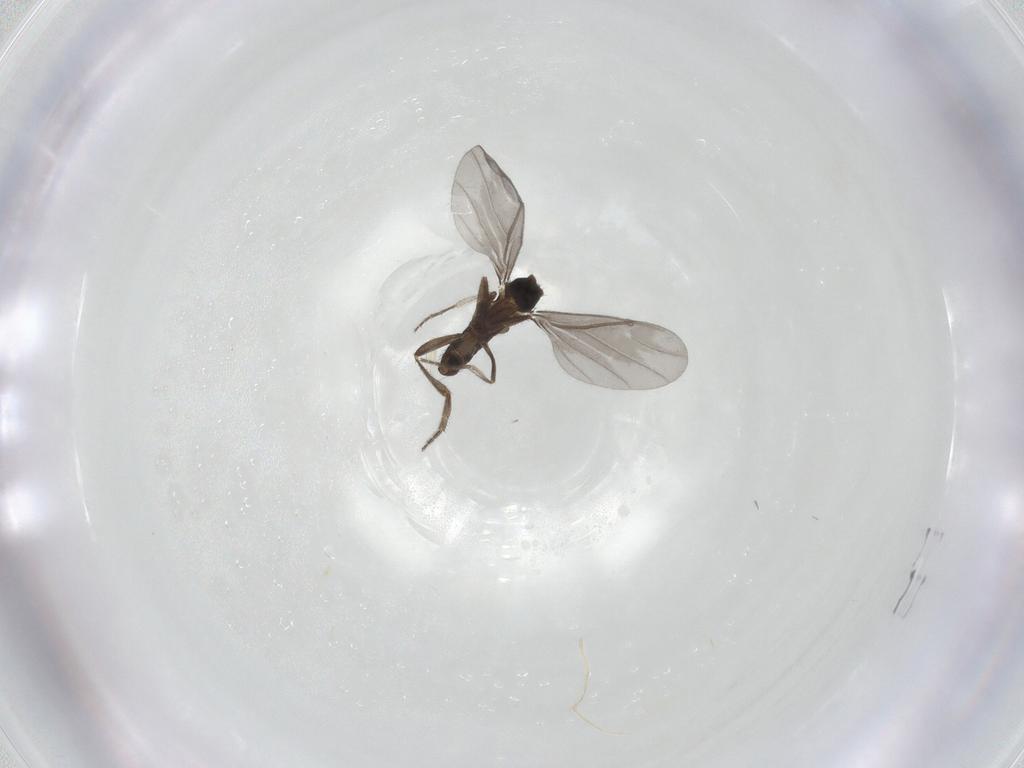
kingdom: Animalia
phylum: Arthropoda
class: Insecta
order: Diptera
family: Phoridae
